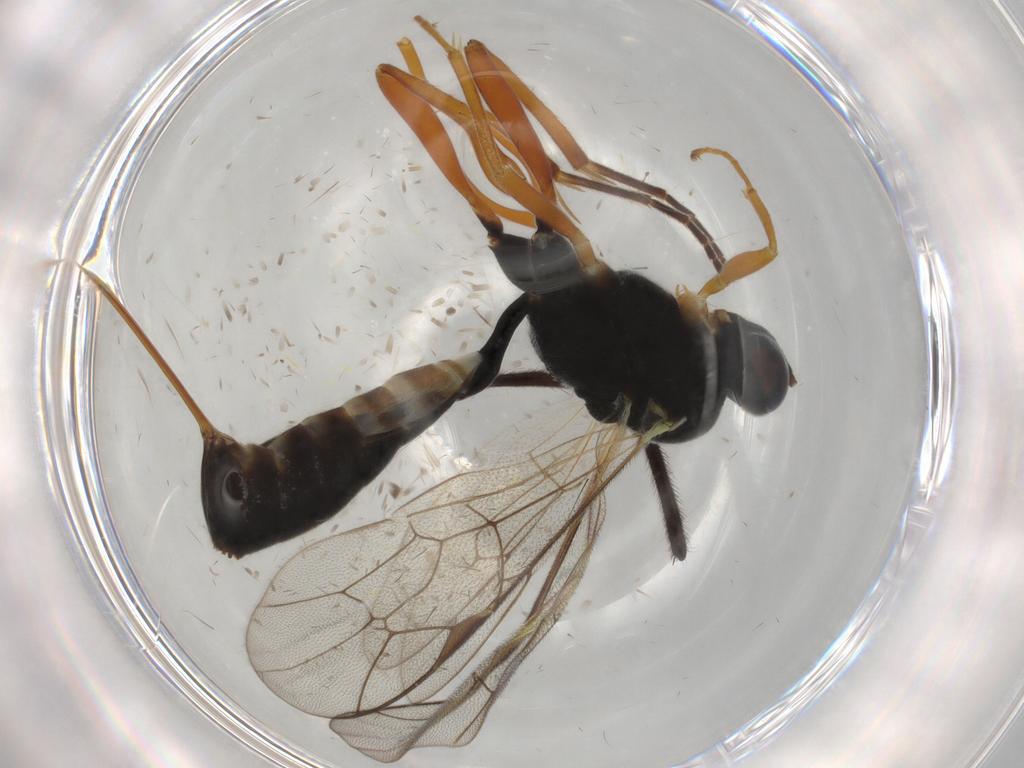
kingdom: Animalia
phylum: Arthropoda
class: Insecta
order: Hymenoptera
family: Ichneumonidae
